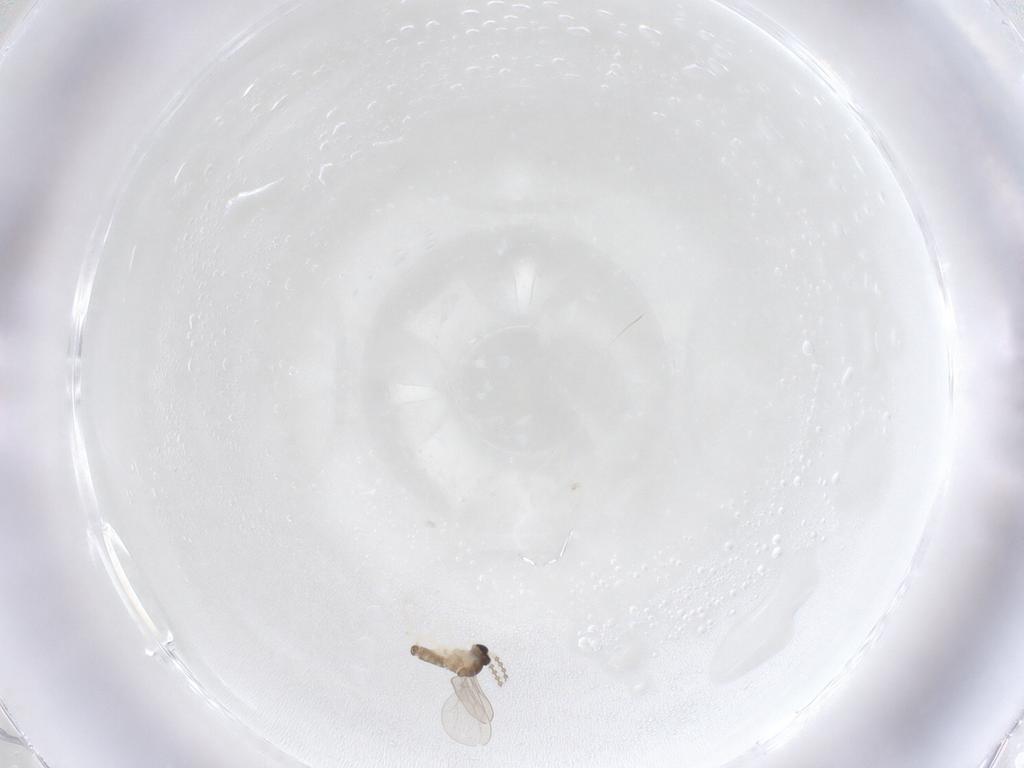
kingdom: Animalia
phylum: Arthropoda
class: Insecta
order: Diptera
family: Cecidomyiidae
